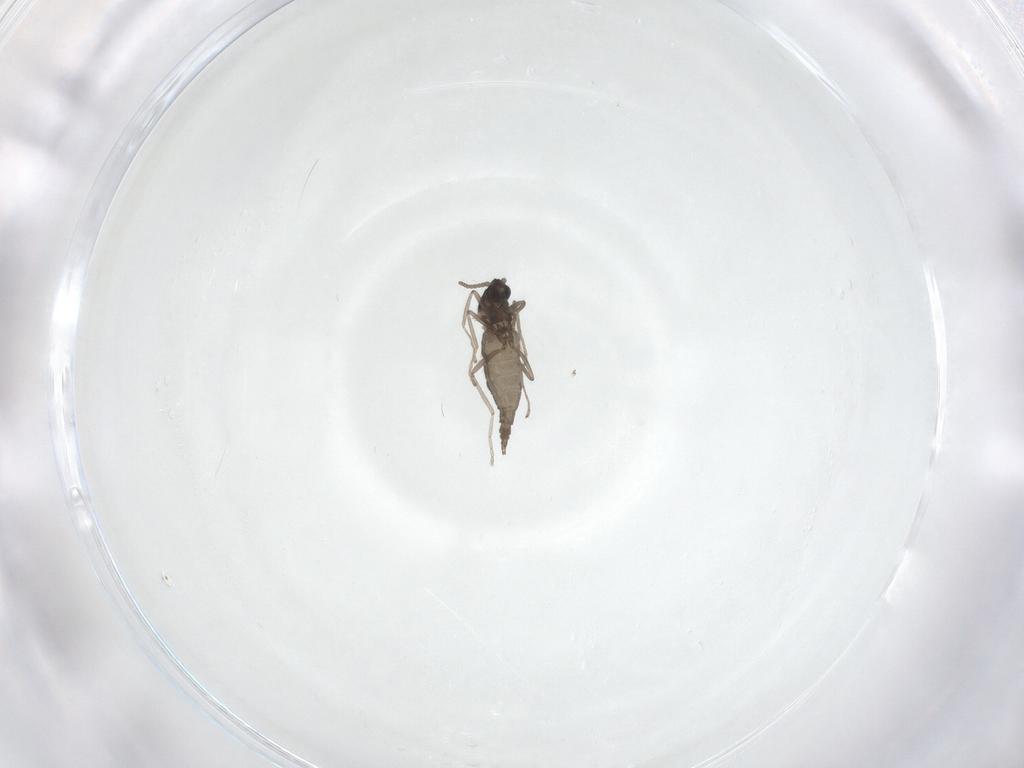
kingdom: Animalia
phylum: Arthropoda
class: Insecta
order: Diptera
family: Cecidomyiidae
